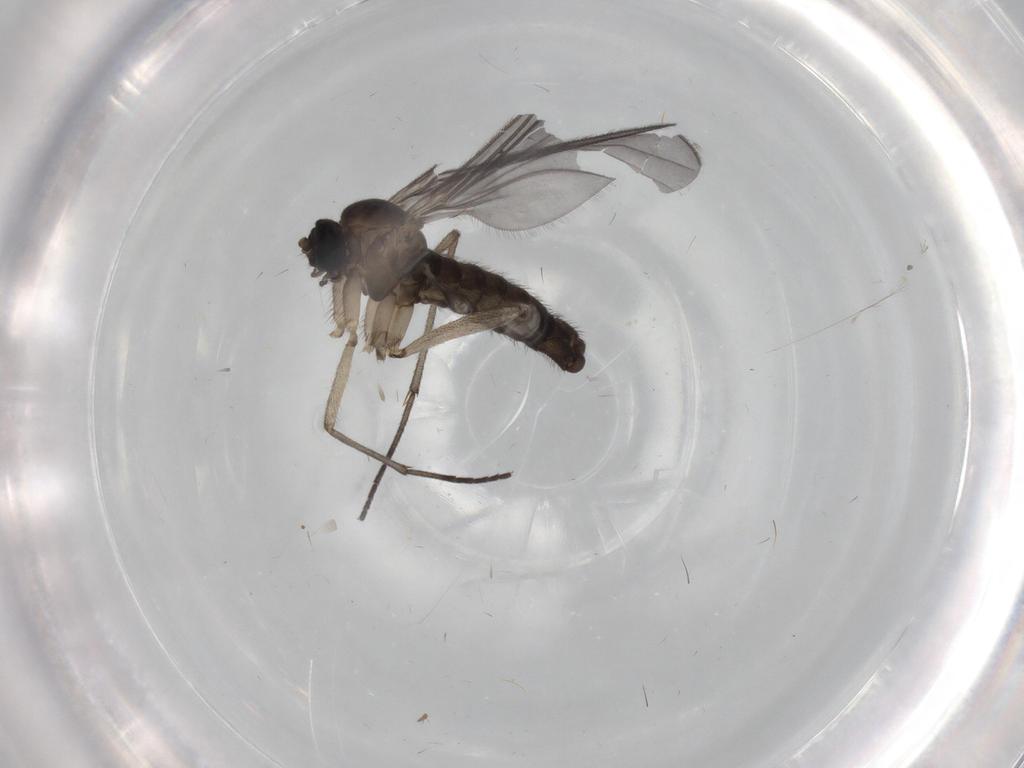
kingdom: Animalia
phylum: Arthropoda
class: Insecta
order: Diptera
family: Sciaridae
